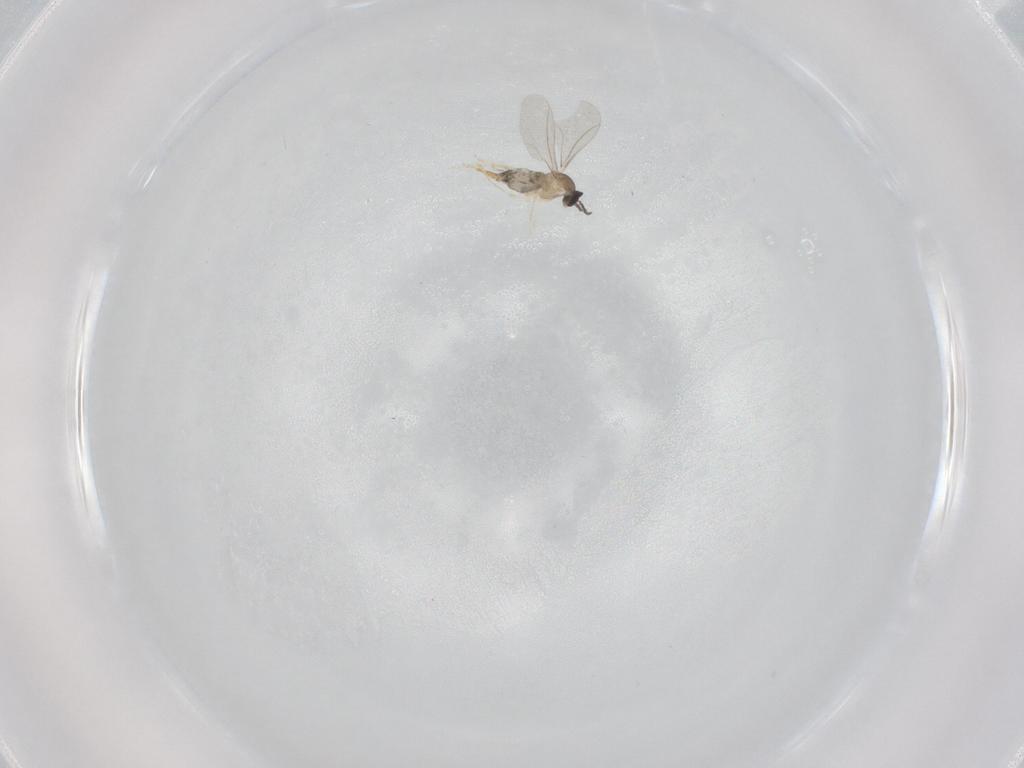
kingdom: Animalia
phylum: Arthropoda
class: Insecta
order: Diptera
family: Cecidomyiidae
